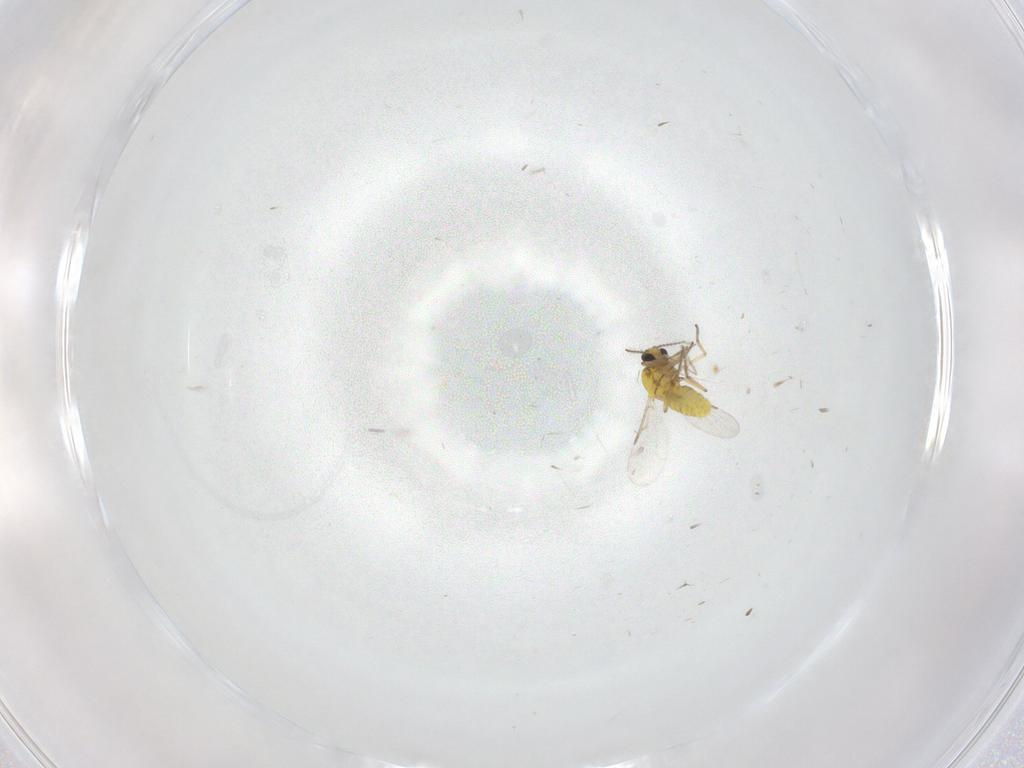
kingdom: Animalia
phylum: Arthropoda
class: Insecta
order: Diptera
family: Ceratopogonidae
